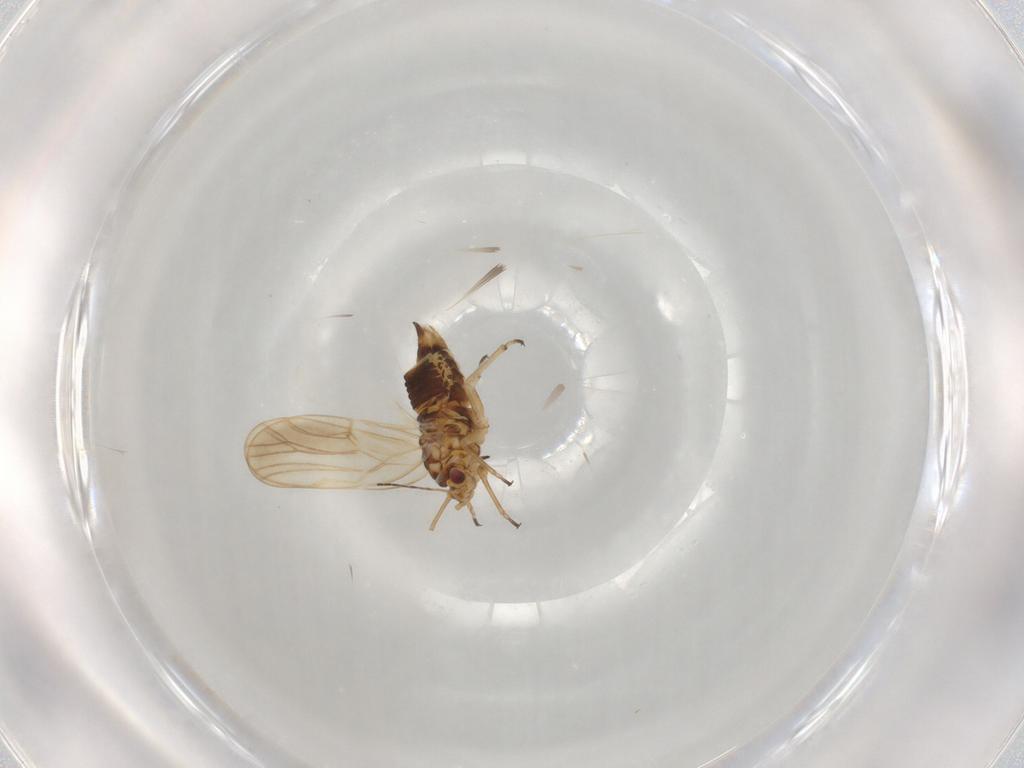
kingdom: Animalia
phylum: Arthropoda
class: Insecta
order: Hemiptera
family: Psylloidea_incertae_sedis
